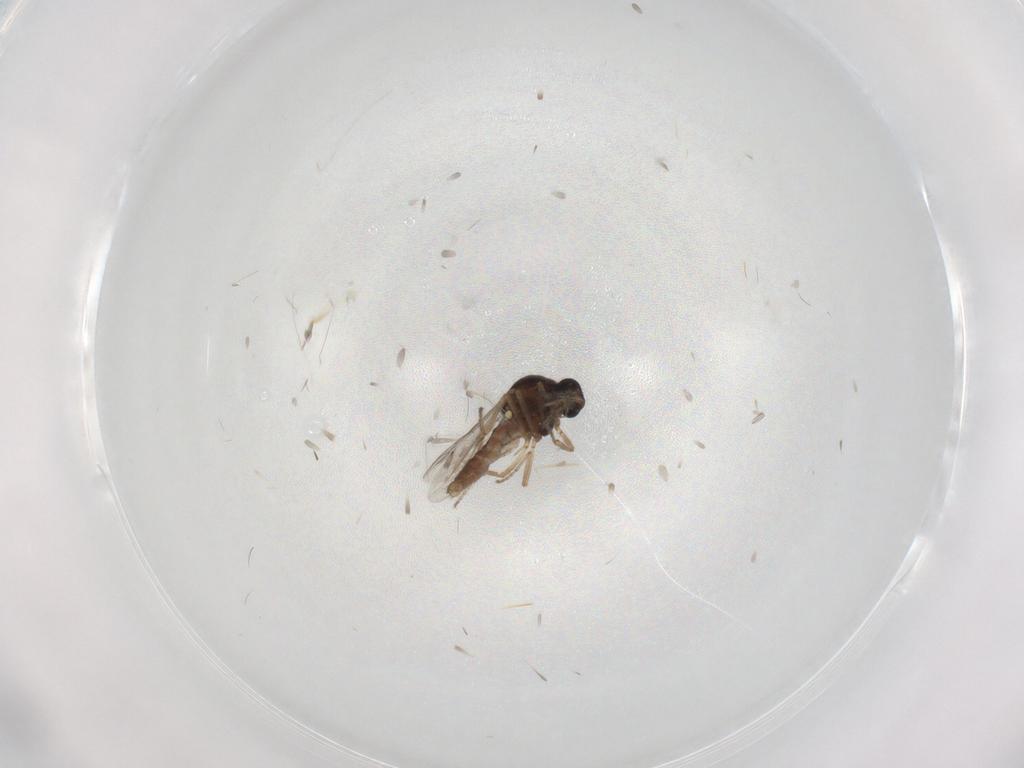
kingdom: Animalia
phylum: Arthropoda
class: Insecta
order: Diptera
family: Ceratopogonidae
